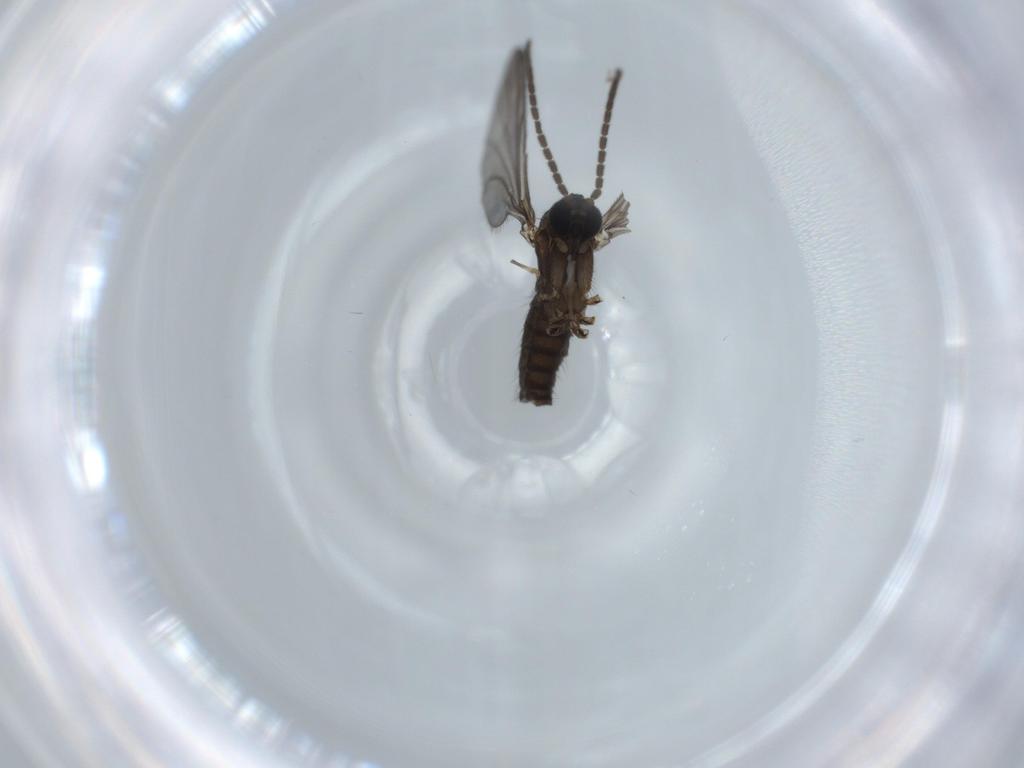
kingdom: Animalia
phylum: Arthropoda
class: Insecta
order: Diptera
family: Sciaridae
